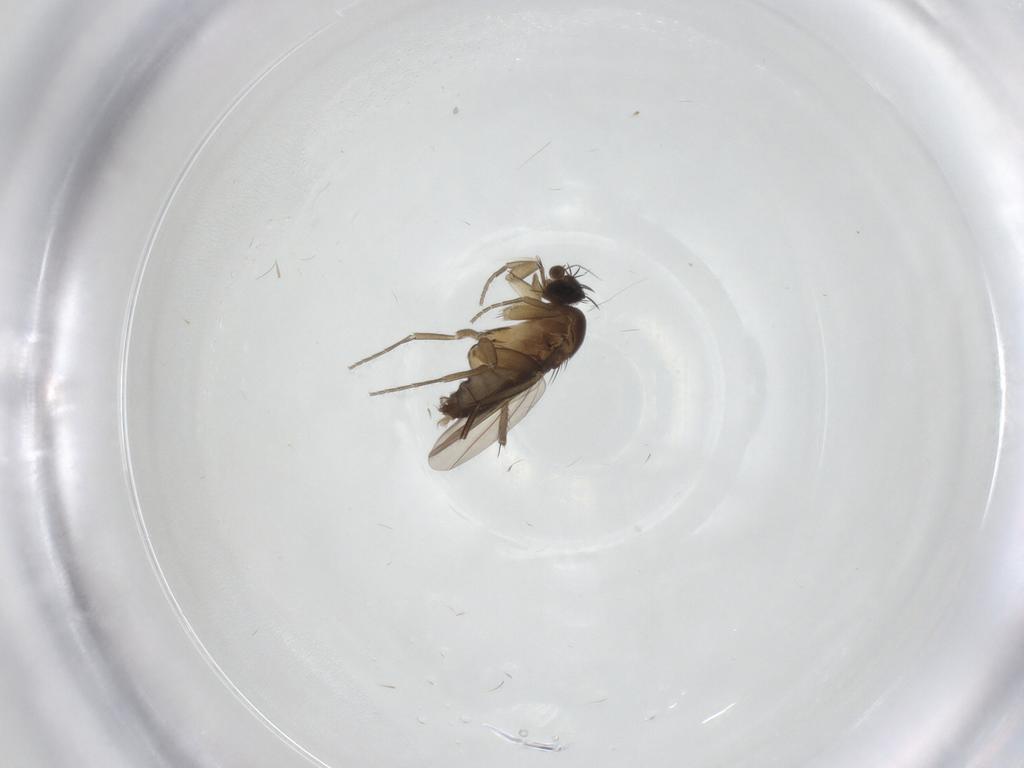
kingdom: Animalia
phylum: Arthropoda
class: Insecta
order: Diptera
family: Phoridae
